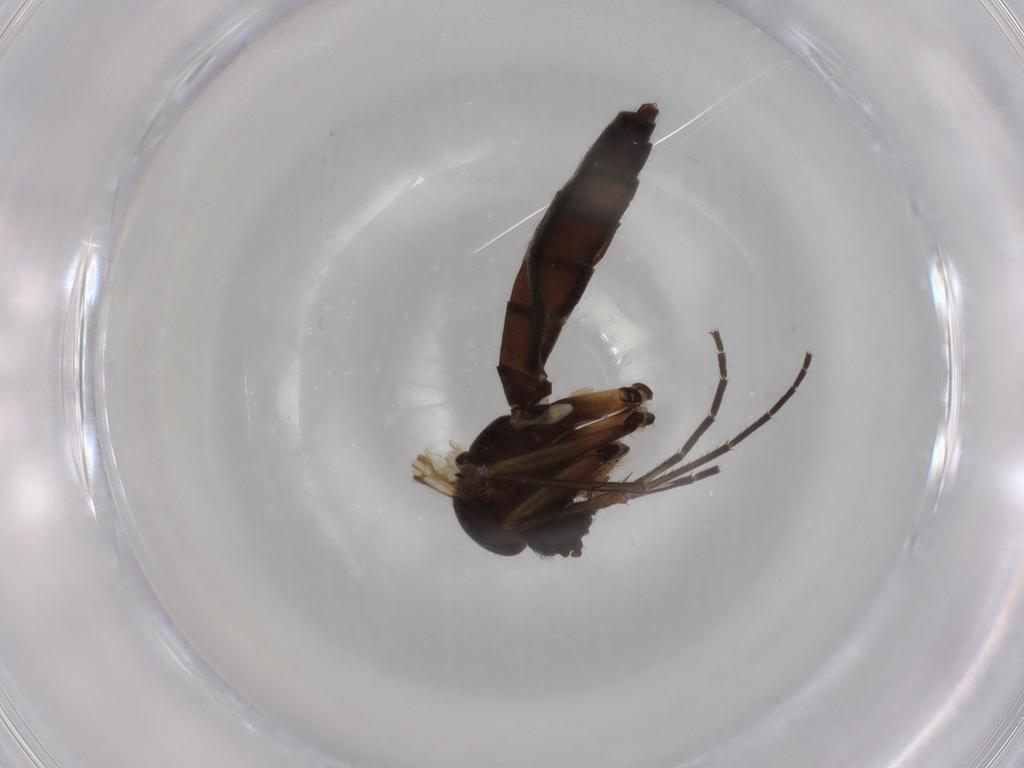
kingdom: Animalia
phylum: Arthropoda
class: Insecta
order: Diptera
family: Mycetophilidae
